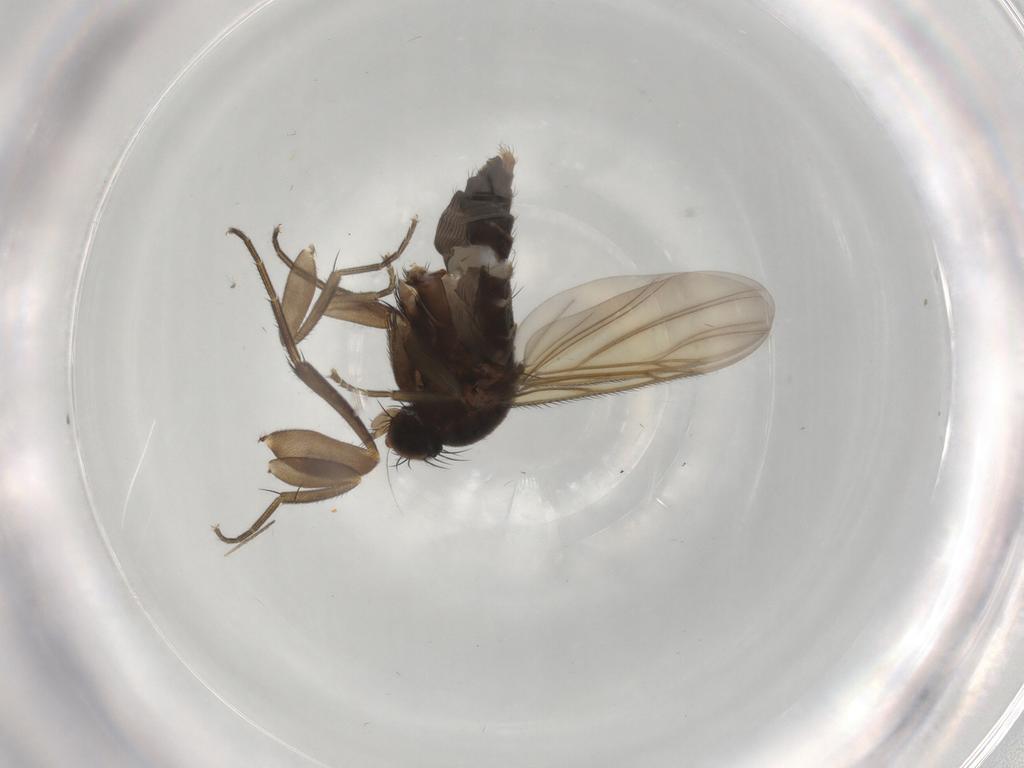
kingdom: Animalia
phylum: Arthropoda
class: Insecta
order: Diptera
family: Phoridae
